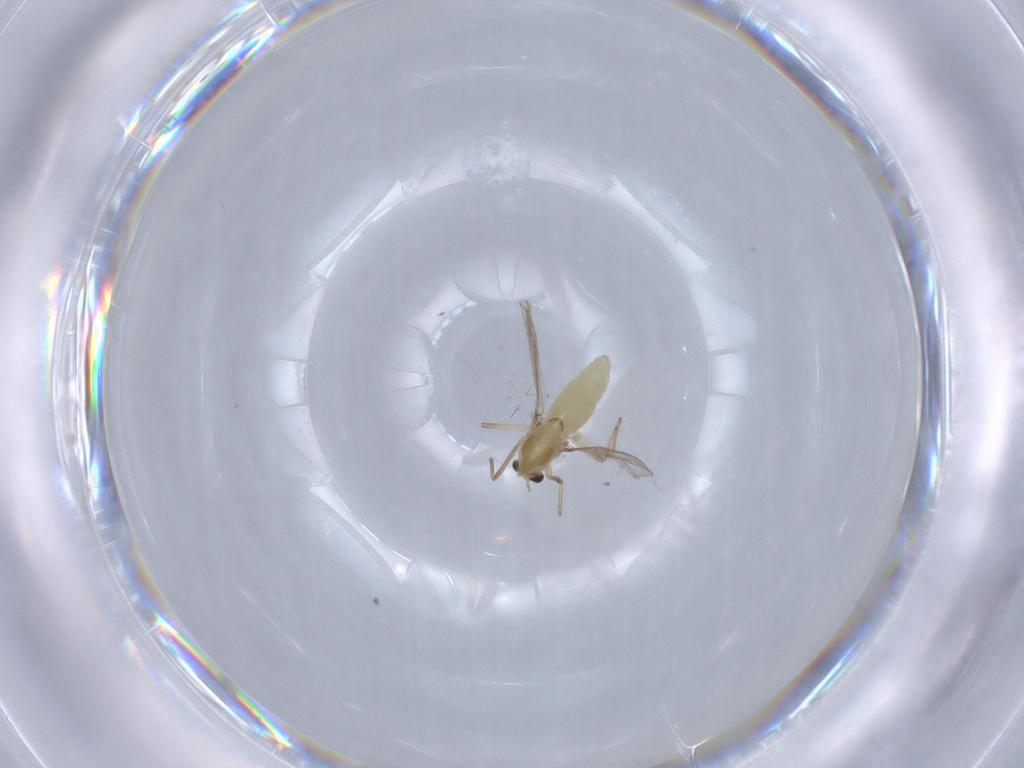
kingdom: Animalia
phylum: Arthropoda
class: Insecta
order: Diptera
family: Chironomidae
